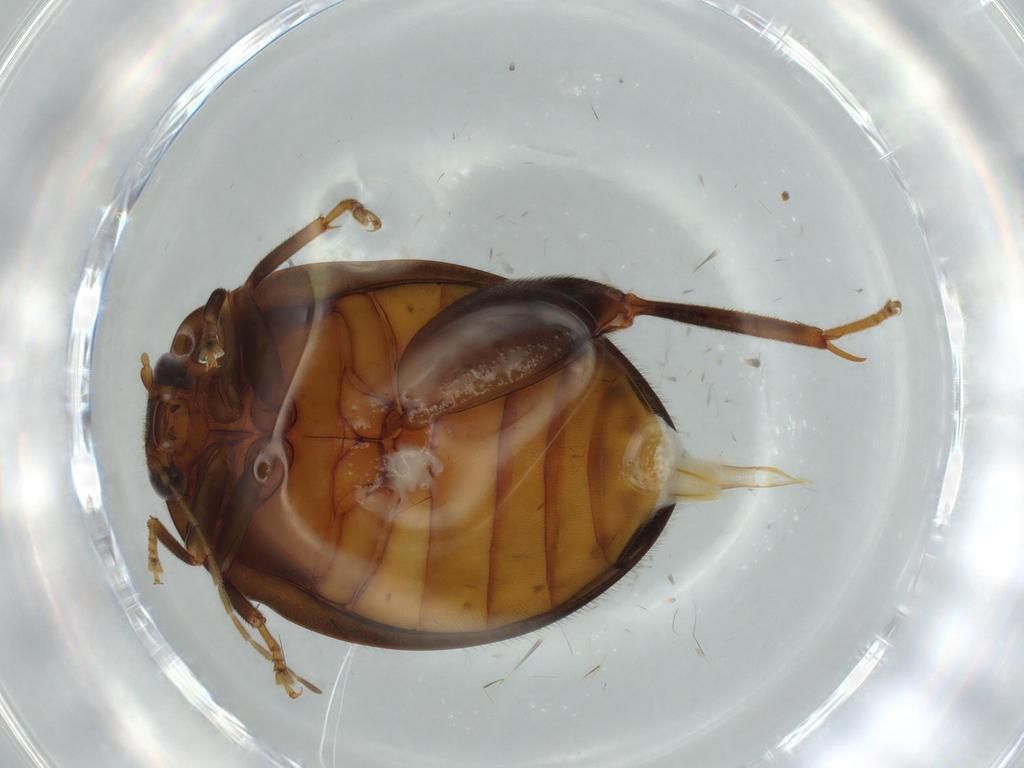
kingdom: Animalia
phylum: Arthropoda
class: Insecta
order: Coleoptera
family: Scirtidae
